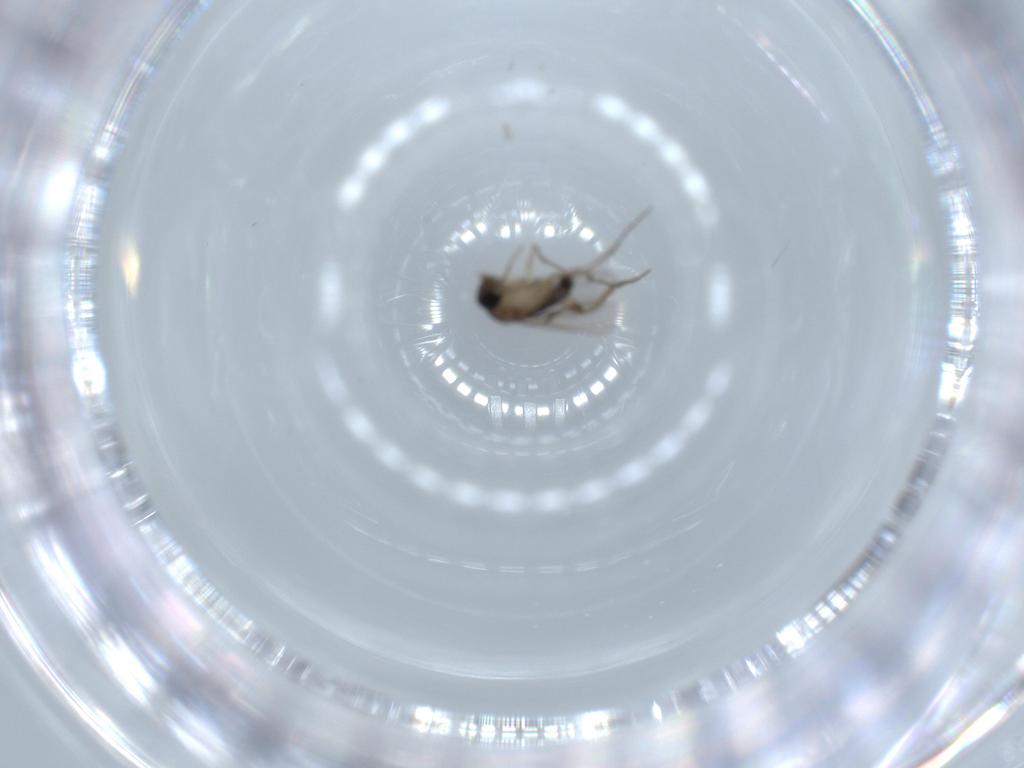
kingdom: Animalia
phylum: Arthropoda
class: Insecta
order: Diptera
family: Phoridae
